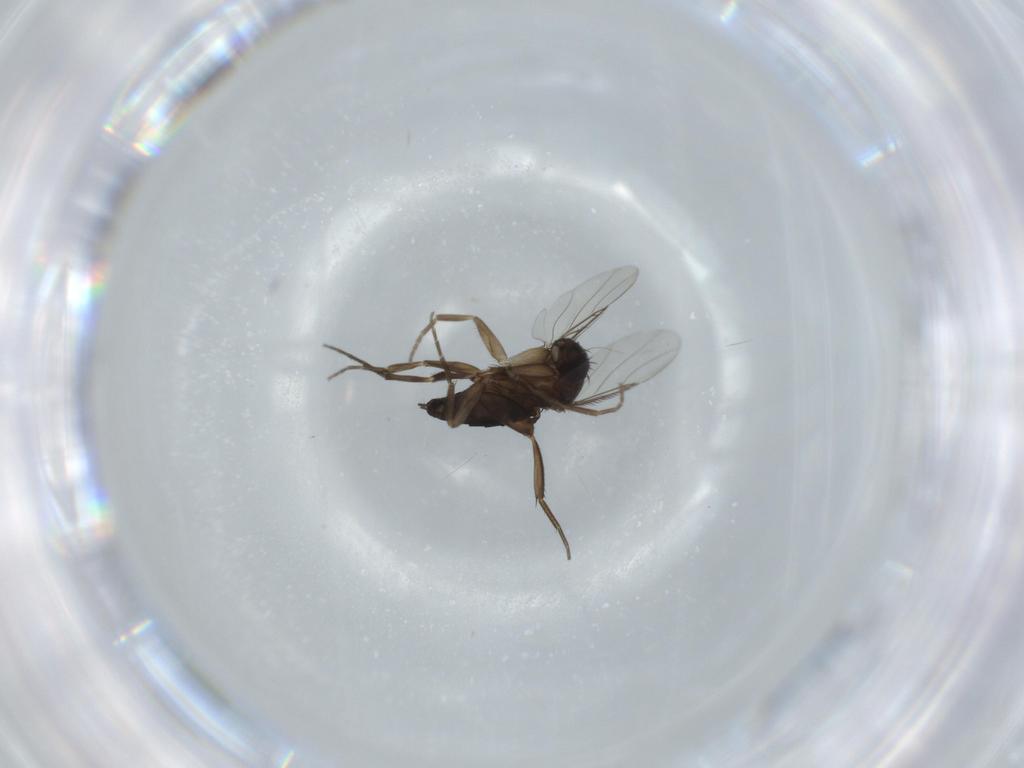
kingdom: Animalia
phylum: Arthropoda
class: Insecta
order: Diptera
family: Phoridae
